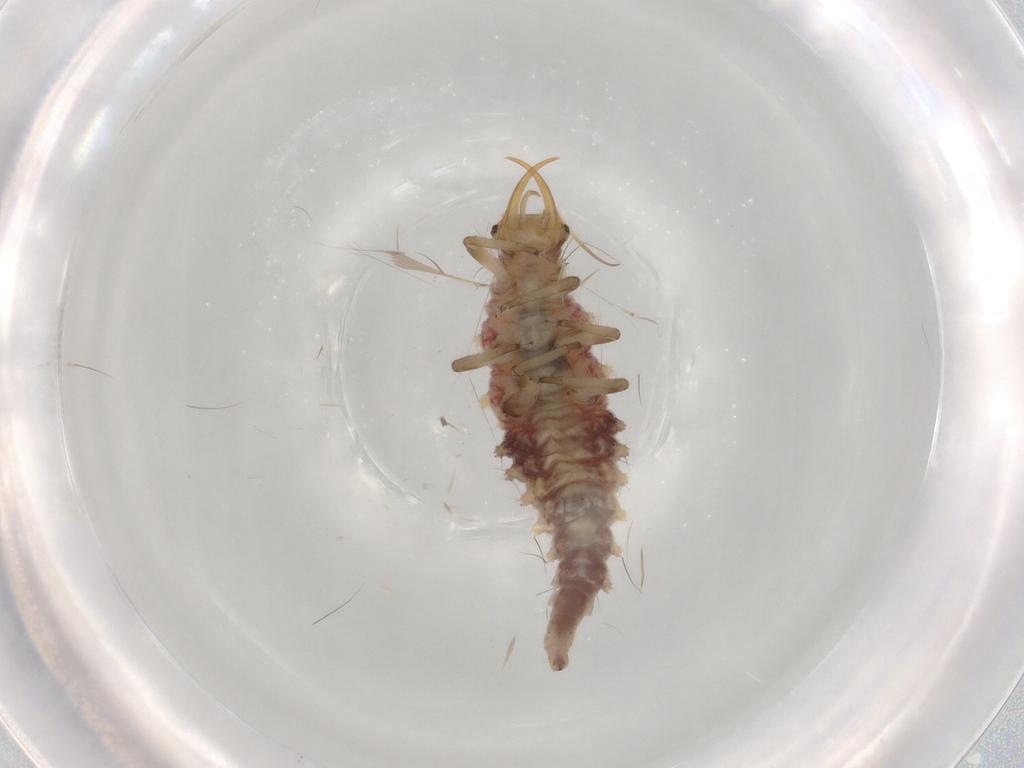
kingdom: Animalia
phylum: Arthropoda
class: Insecta
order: Neuroptera
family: Chrysopidae
